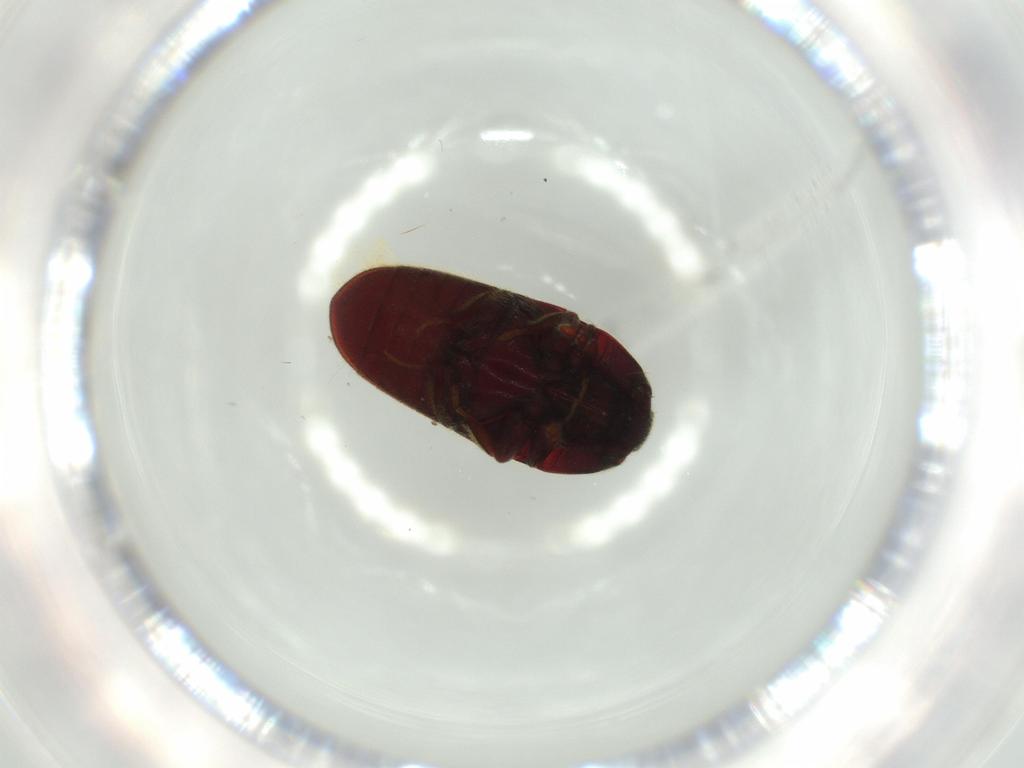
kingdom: Animalia
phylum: Arthropoda
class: Insecta
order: Coleoptera
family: Throscidae
